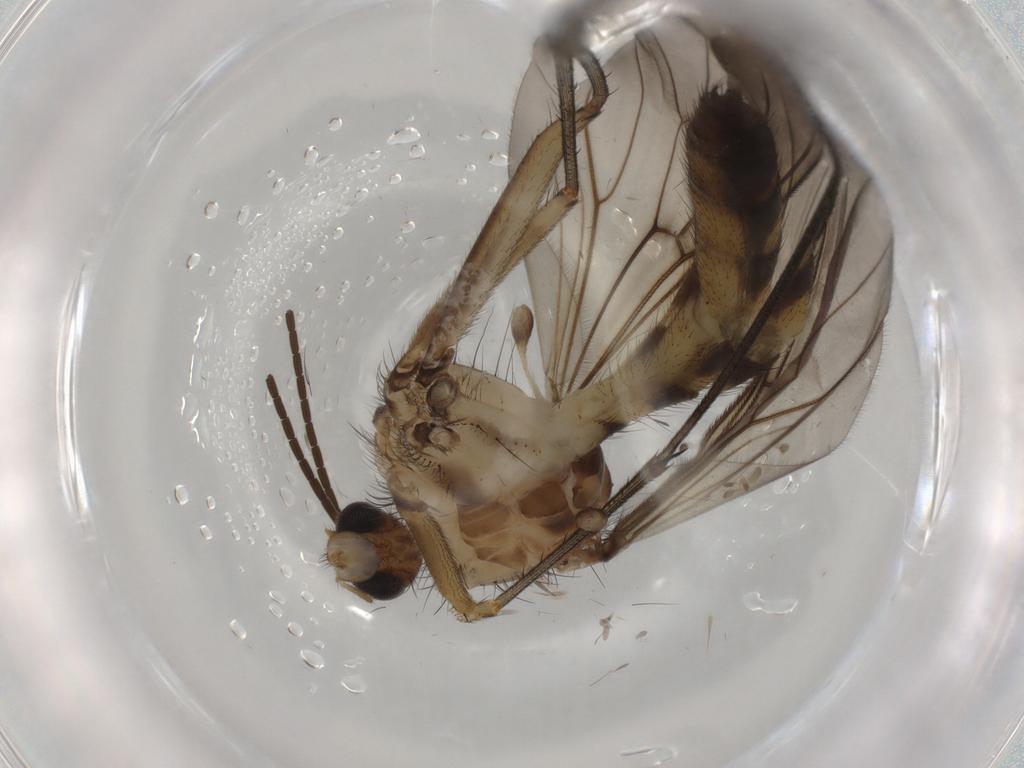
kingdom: Animalia
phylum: Arthropoda
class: Insecta
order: Diptera
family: Mycetophilidae
